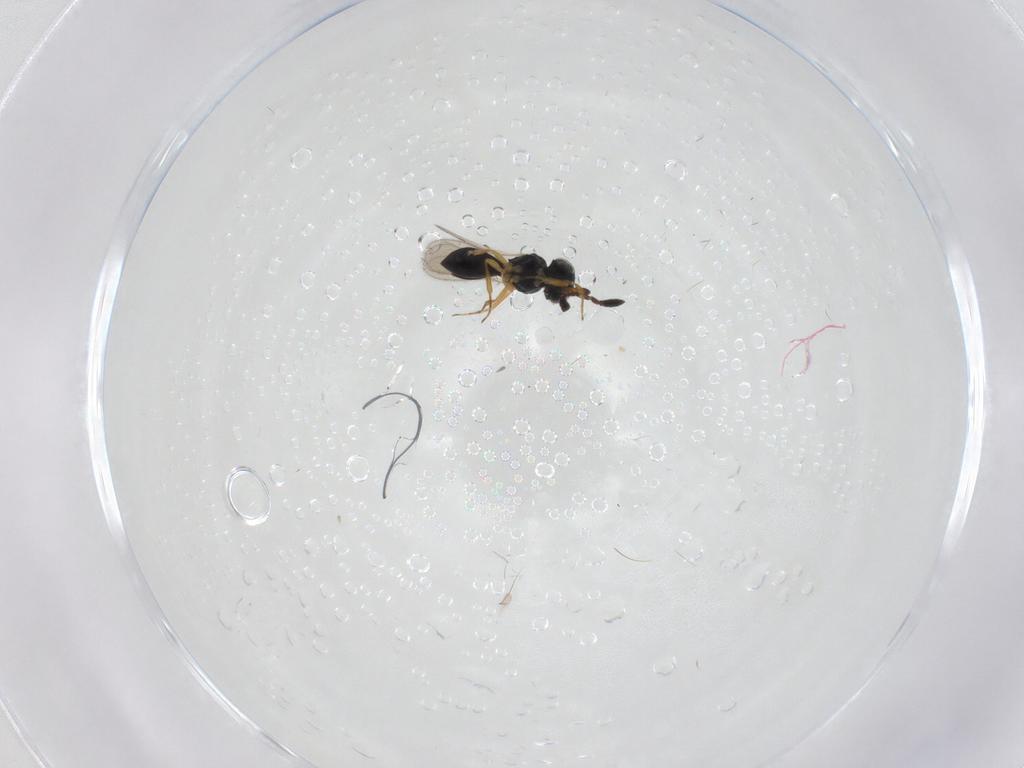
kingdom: Animalia
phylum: Arthropoda
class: Insecta
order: Hymenoptera
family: Scelionidae
